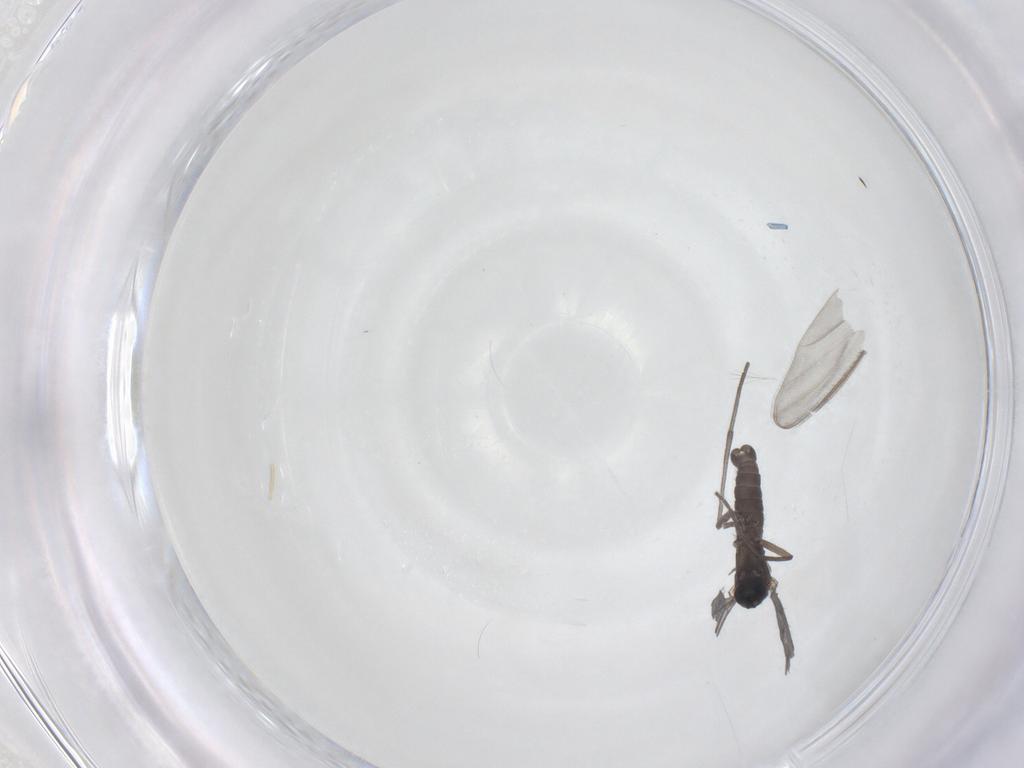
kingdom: Animalia
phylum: Arthropoda
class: Insecta
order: Diptera
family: Sciaridae
